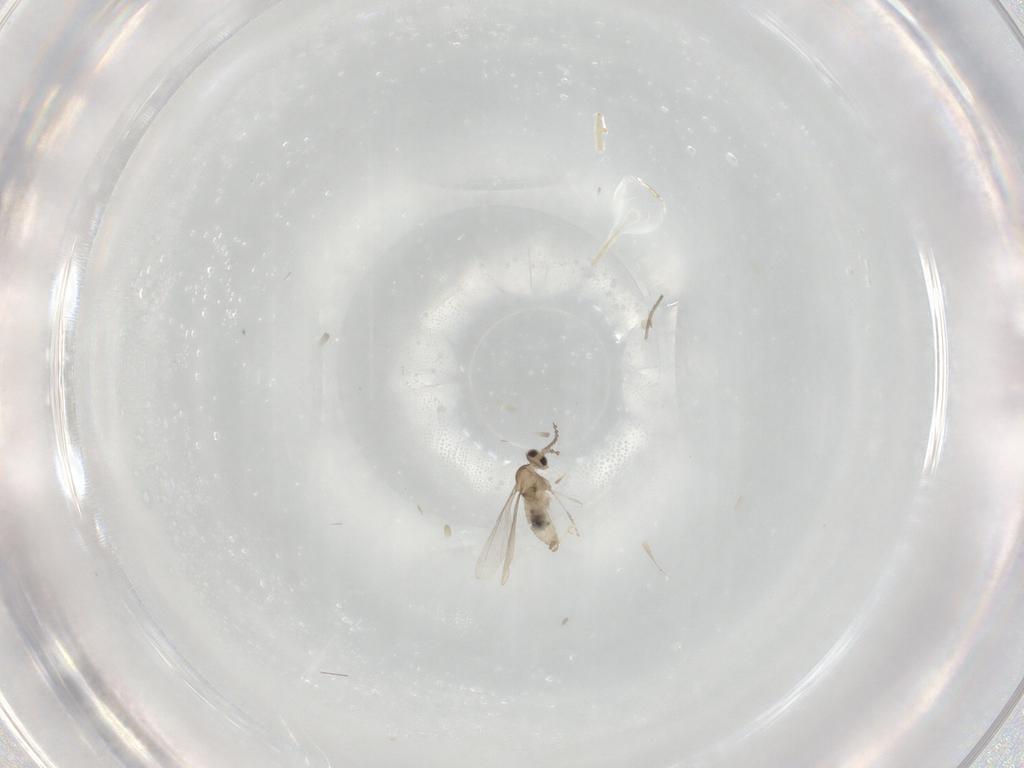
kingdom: Animalia
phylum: Arthropoda
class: Insecta
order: Diptera
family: Cecidomyiidae
